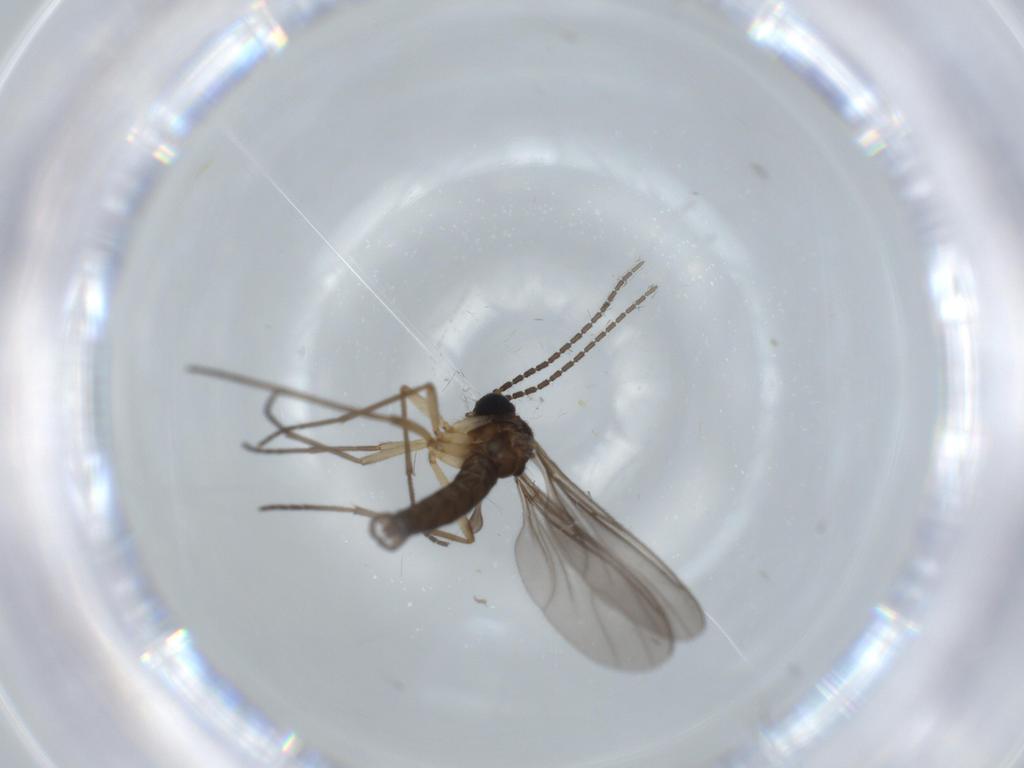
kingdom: Animalia
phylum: Arthropoda
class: Insecta
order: Diptera
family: Sciaridae
